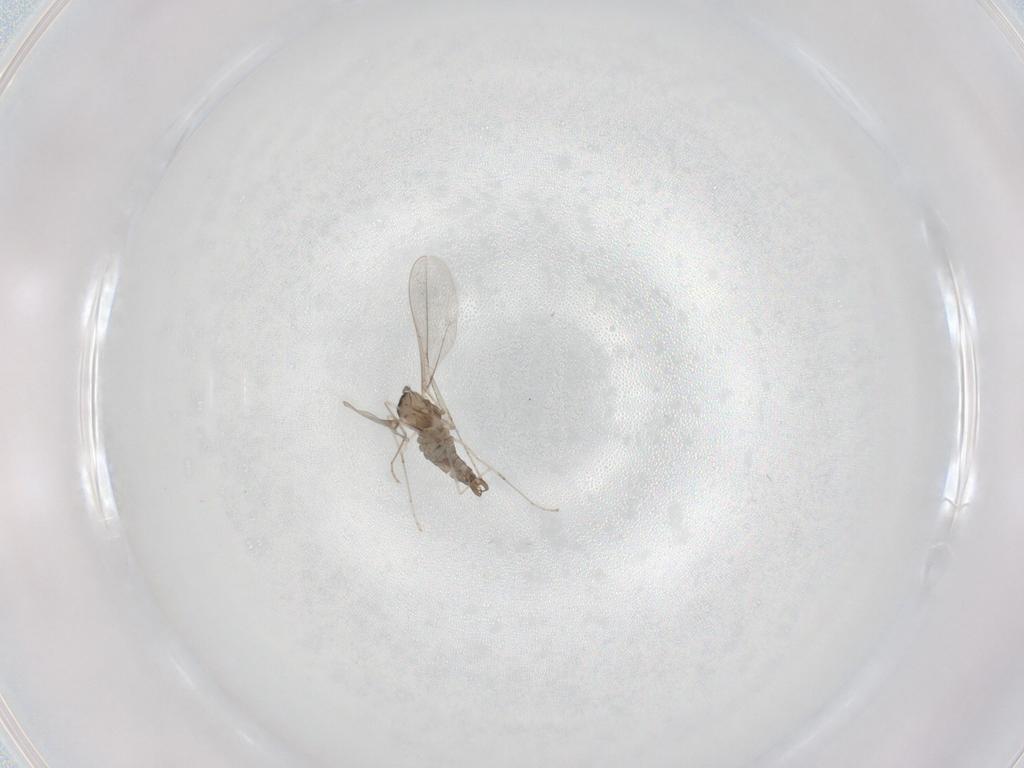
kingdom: Animalia
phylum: Arthropoda
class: Insecta
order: Diptera
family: Cecidomyiidae
